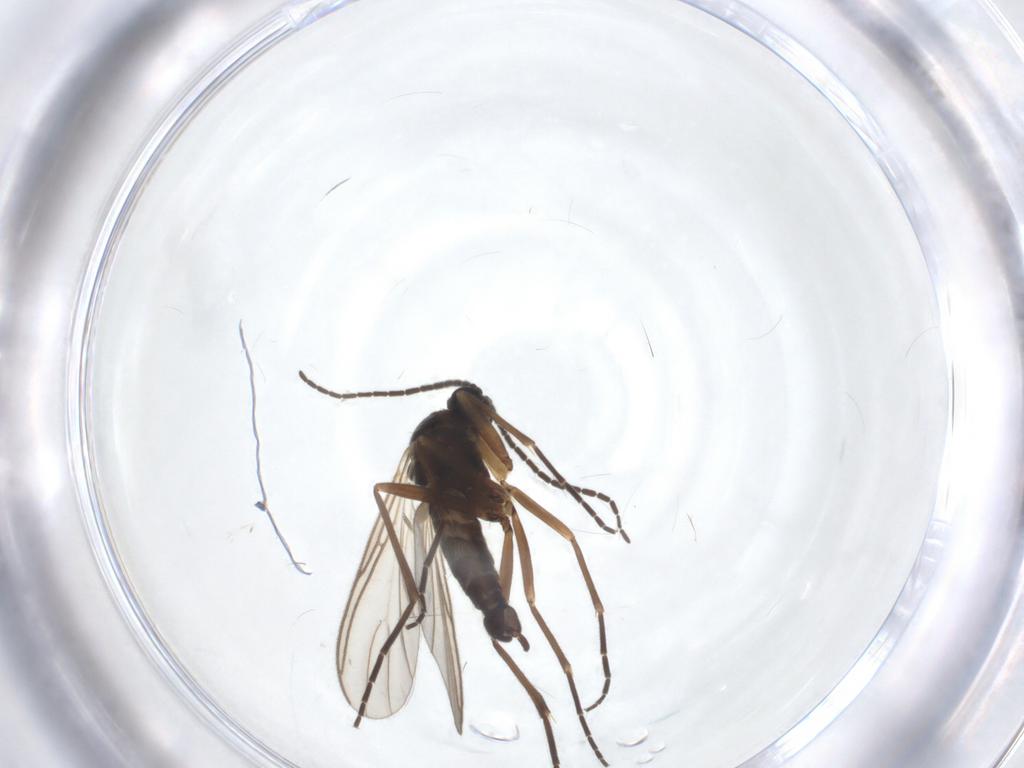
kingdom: Animalia
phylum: Arthropoda
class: Insecta
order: Diptera
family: Sciaridae
